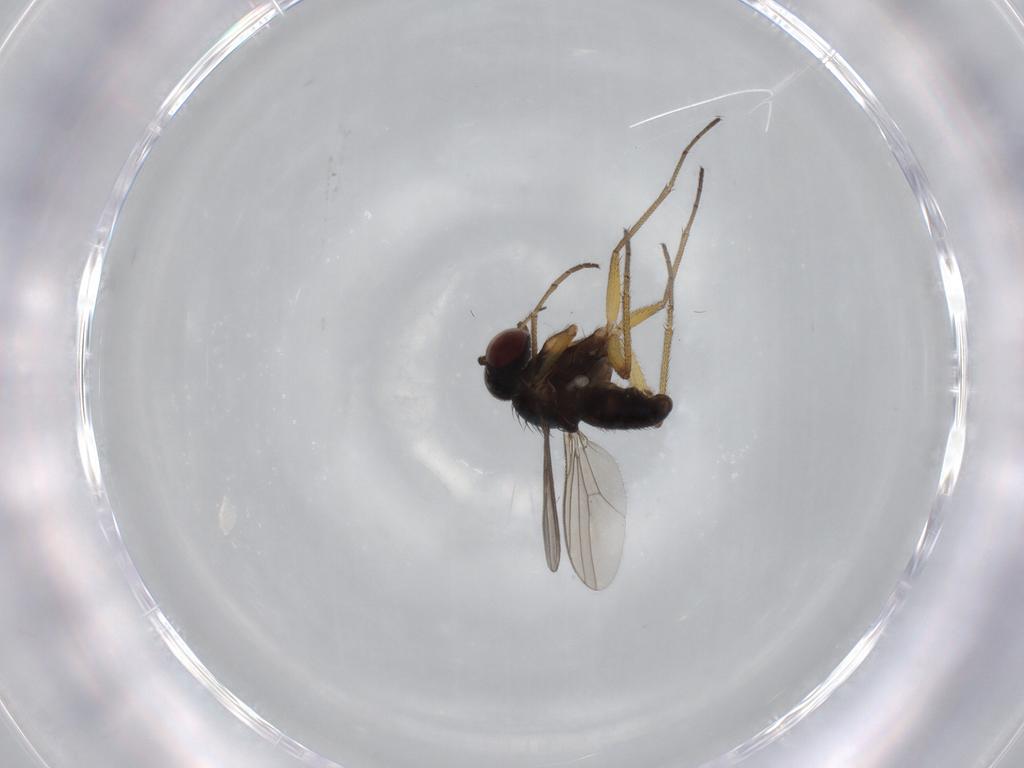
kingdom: Animalia
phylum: Arthropoda
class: Insecta
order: Diptera
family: Dolichopodidae
